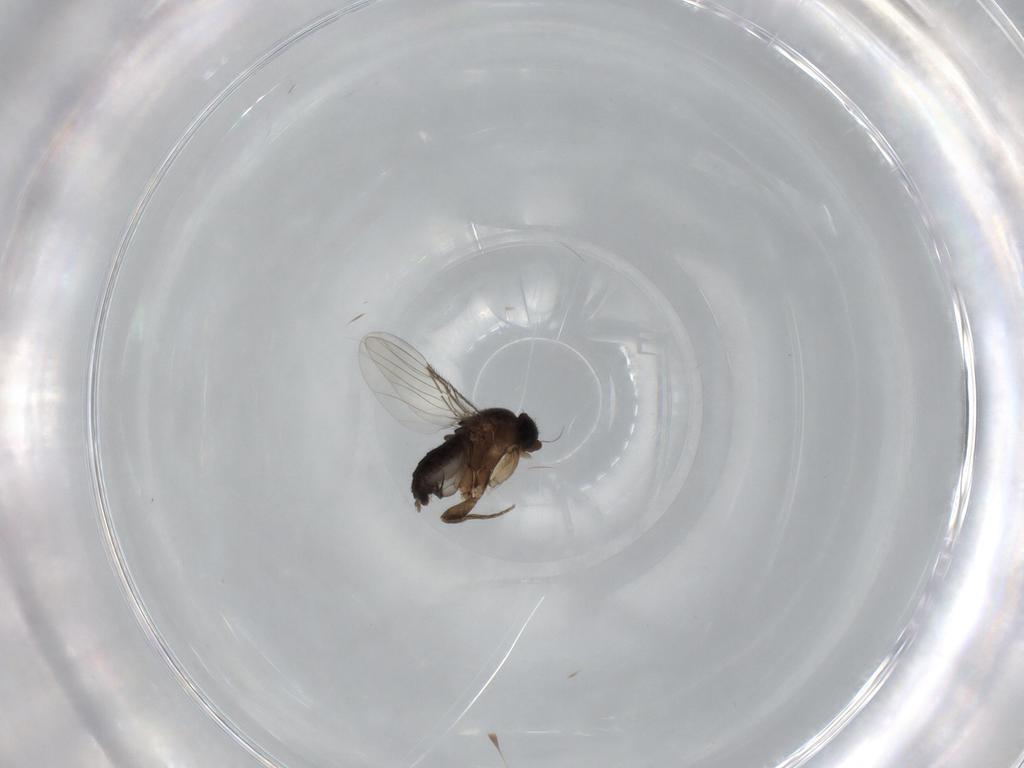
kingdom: Animalia
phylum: Arthropoda
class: Insecta
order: Diptera
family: Phoridae
